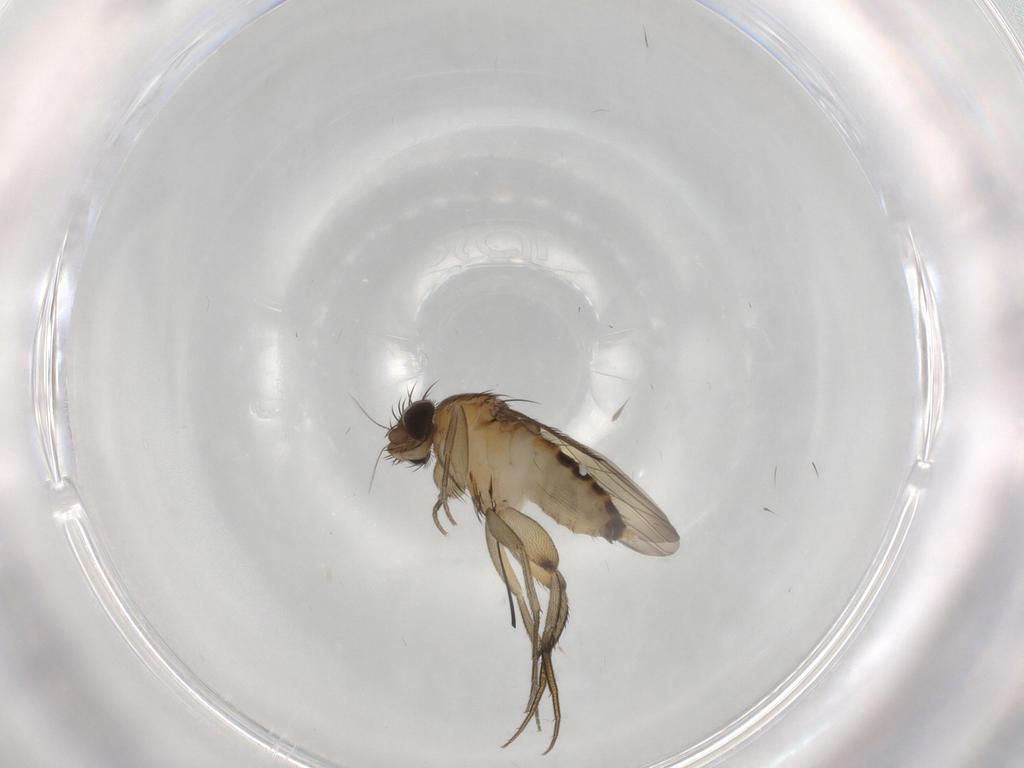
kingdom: Animalia
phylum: Arthropoda
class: Insecta
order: Diptera
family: Phoridae
